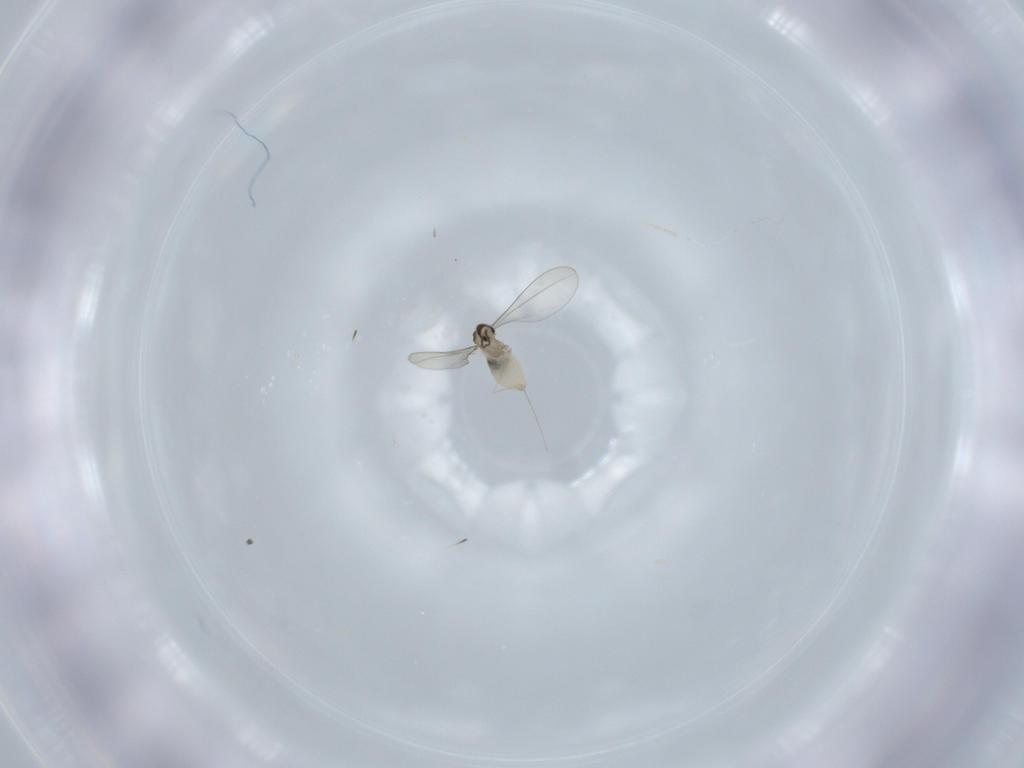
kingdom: Animalia
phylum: Arthropoda
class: Insecta
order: Diptera
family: Cecidomyiidae
